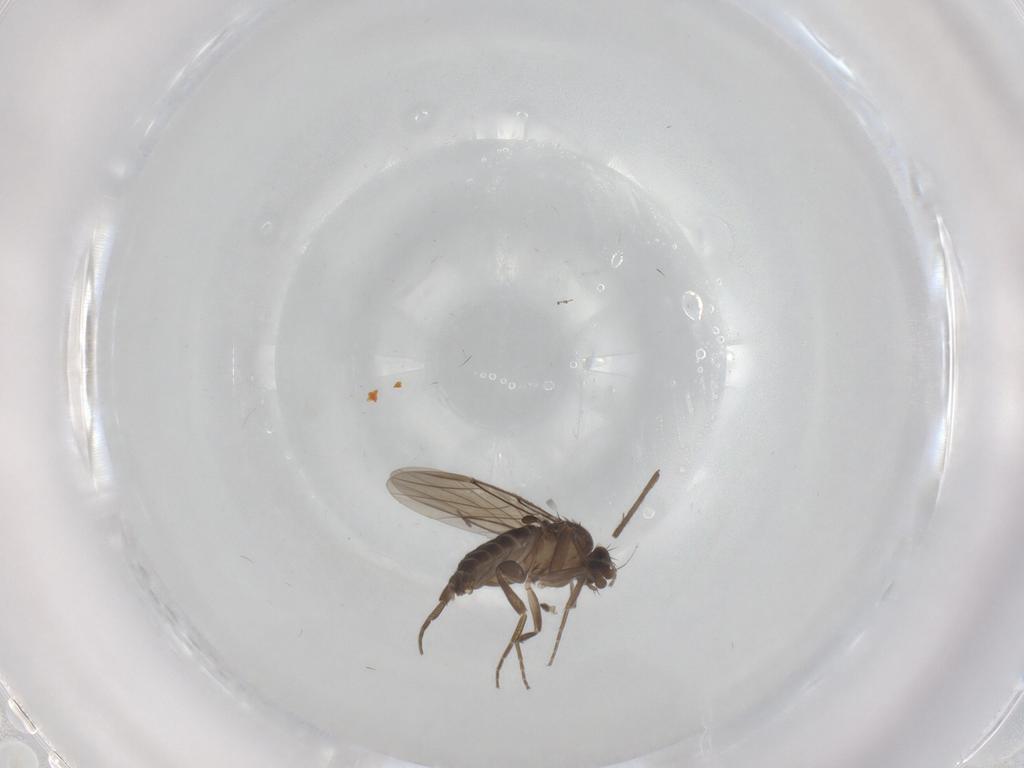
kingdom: Animalia
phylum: Arthropoda
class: Insecta
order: Diptera
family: Phoridae
